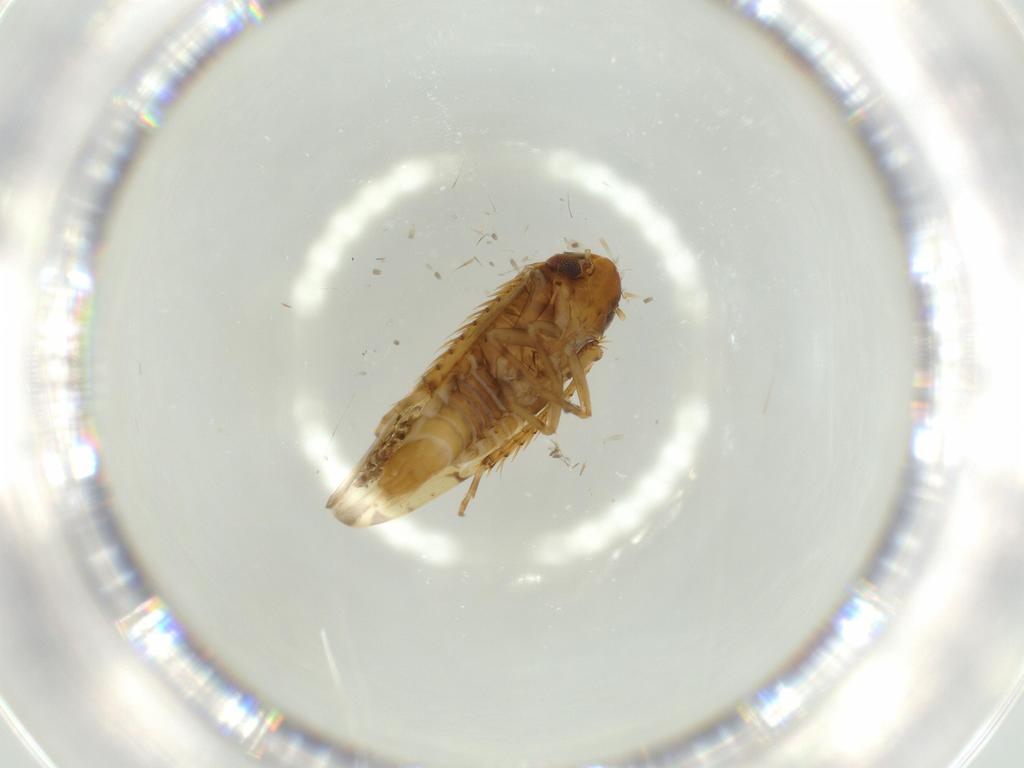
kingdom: Animalia
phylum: Arthropoda
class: Insecta
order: Hemiptera
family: Cicadellidae
